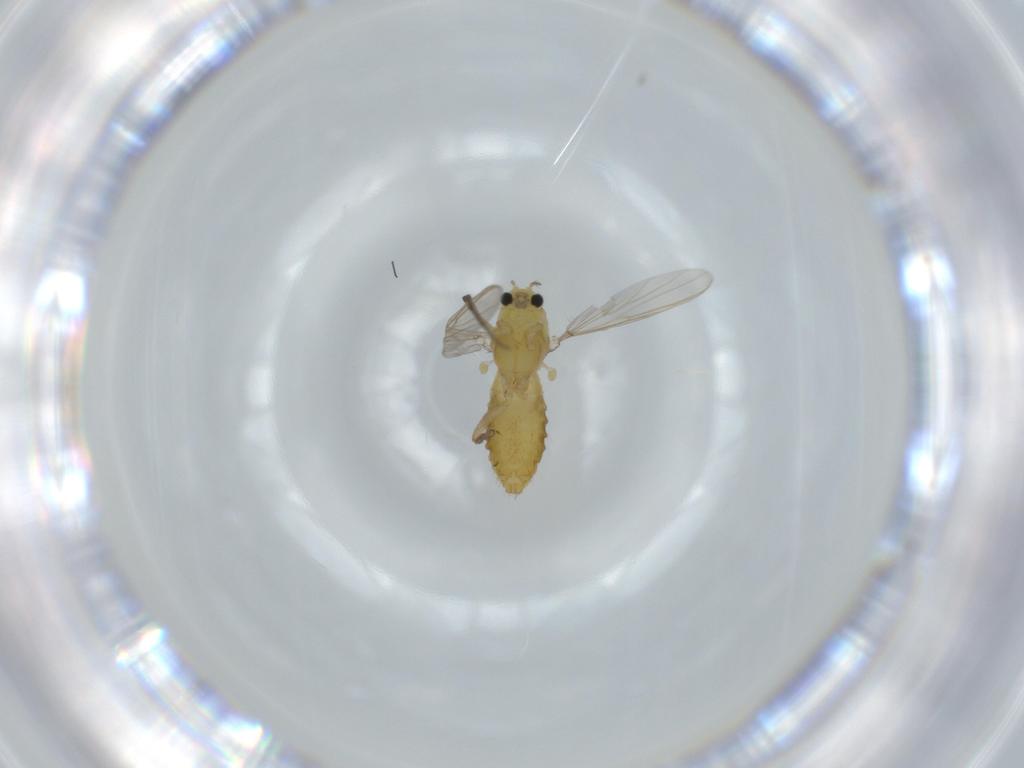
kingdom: Animalia
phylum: Arthropoda
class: Insecta
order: Diptera
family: Chironomidae
